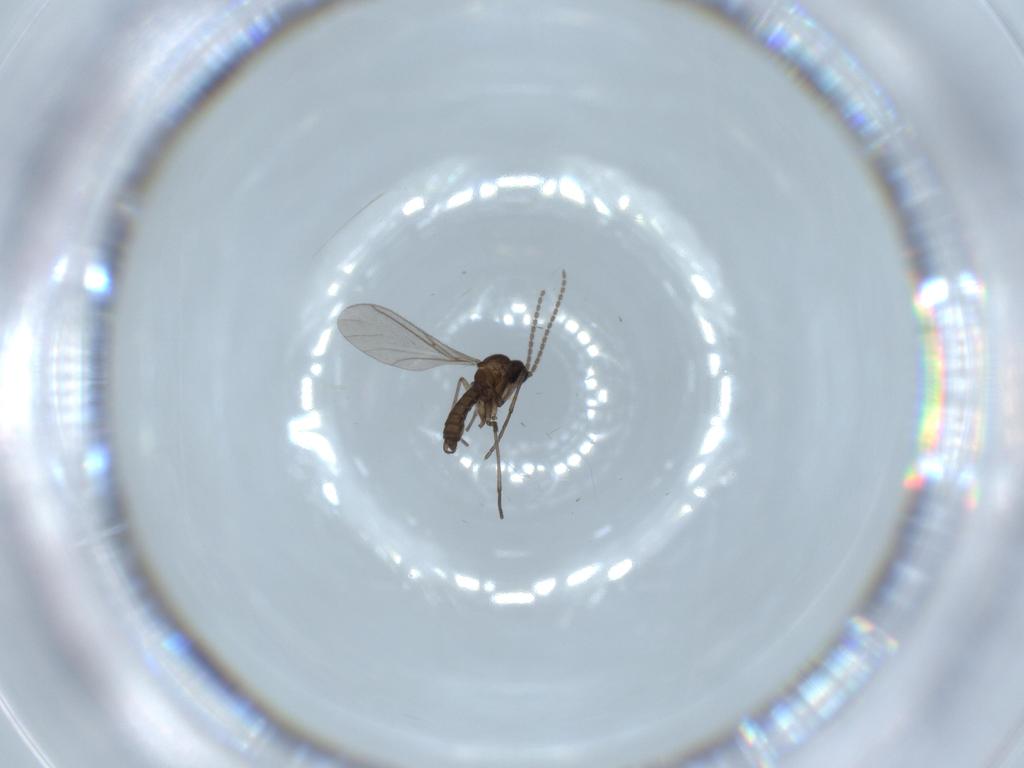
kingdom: Animalia
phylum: Arthropoda
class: Insecta
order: Diptera
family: Sciaridae
